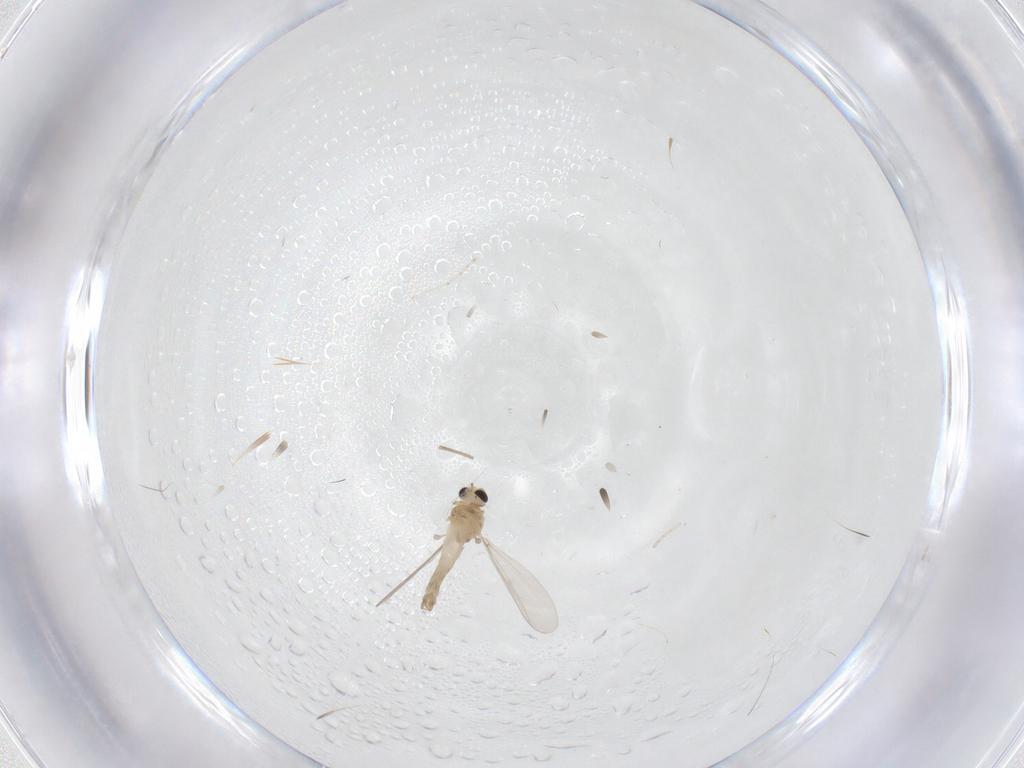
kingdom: Animalia
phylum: Arthropoda
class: Insecta
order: Diptera
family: Cecidomyiidae
